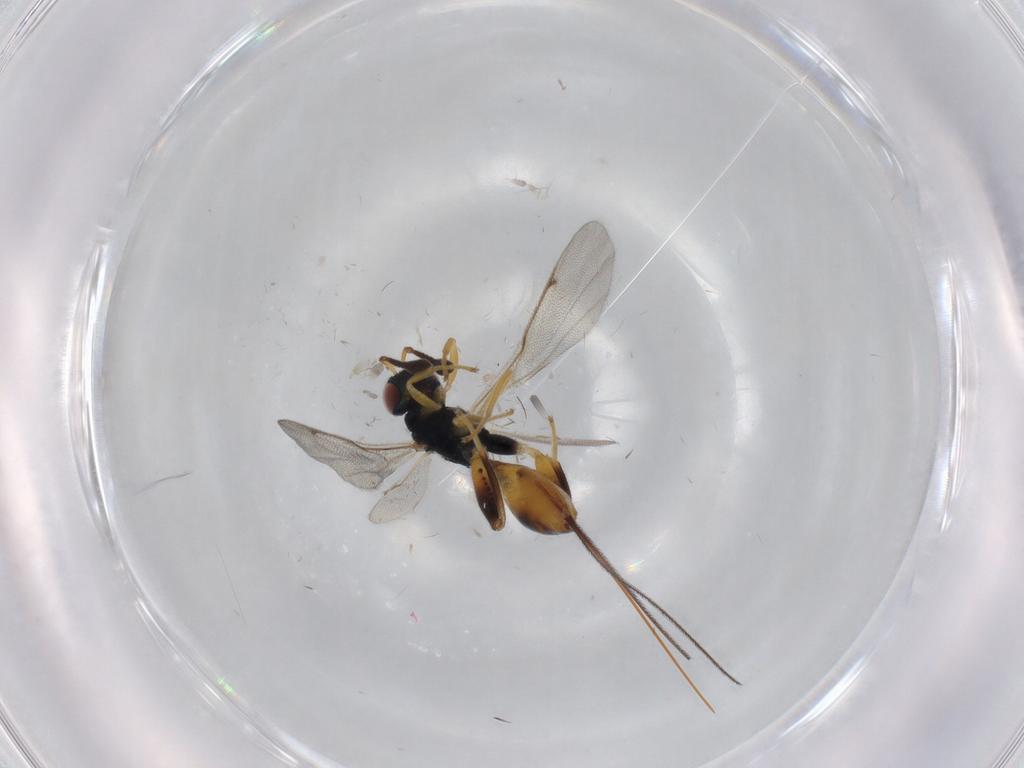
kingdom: Animalia
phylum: Arthropoda
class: Insecta
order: Hymenoptera
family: Torymidae
